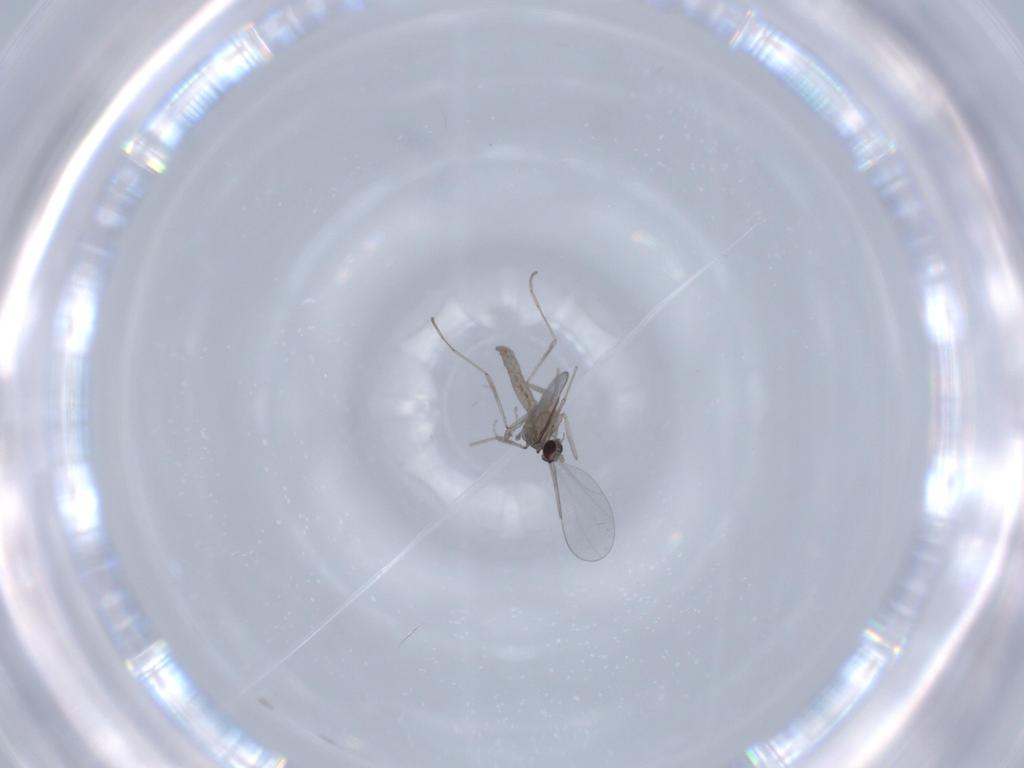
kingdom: Animalia
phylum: Arthropoda
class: Insecta
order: Diptera
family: Cecidomyiidae
